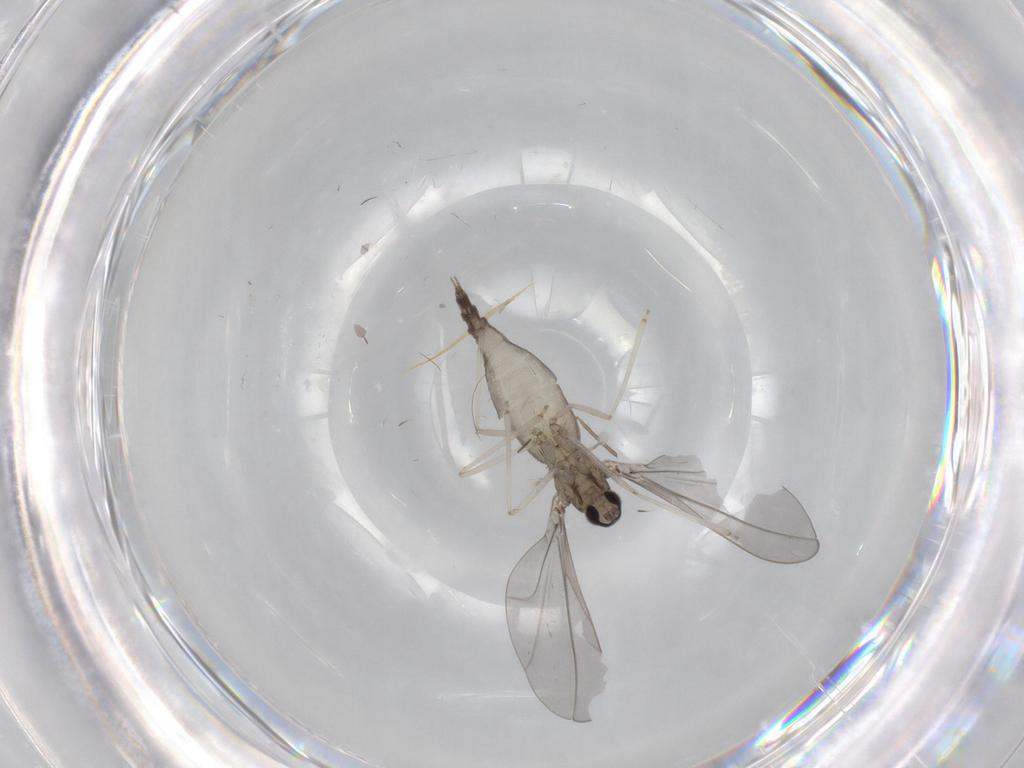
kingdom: Animalia
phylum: Arthropoda
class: Insecta
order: Diptera
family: Cecidomyiidae
